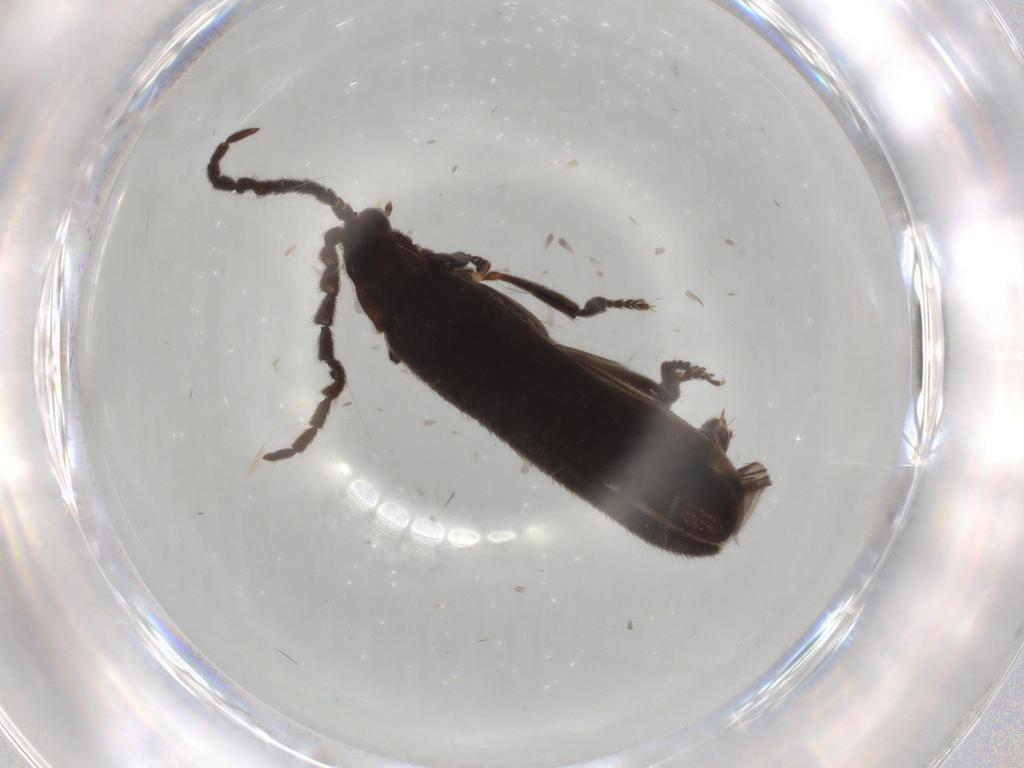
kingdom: Animalia
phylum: Arthropoda
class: Insecta
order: Coleoptera
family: Lycidae
